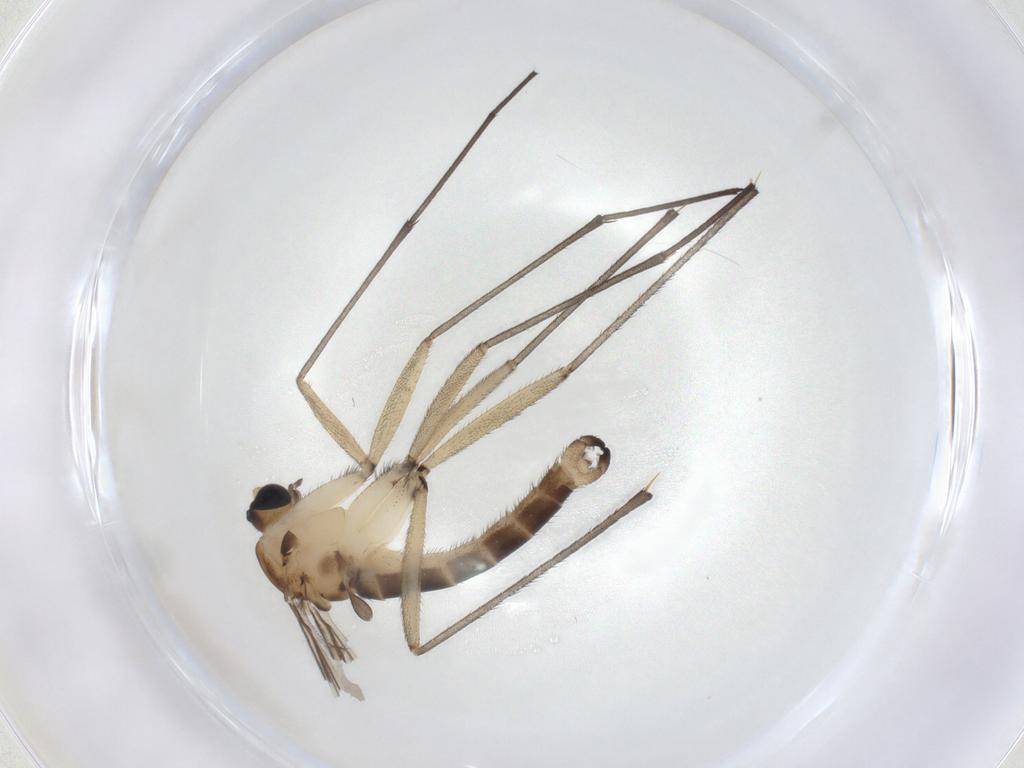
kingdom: Animalia
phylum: Arthropoda
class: Insecta
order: Diptera
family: Sciaridae
